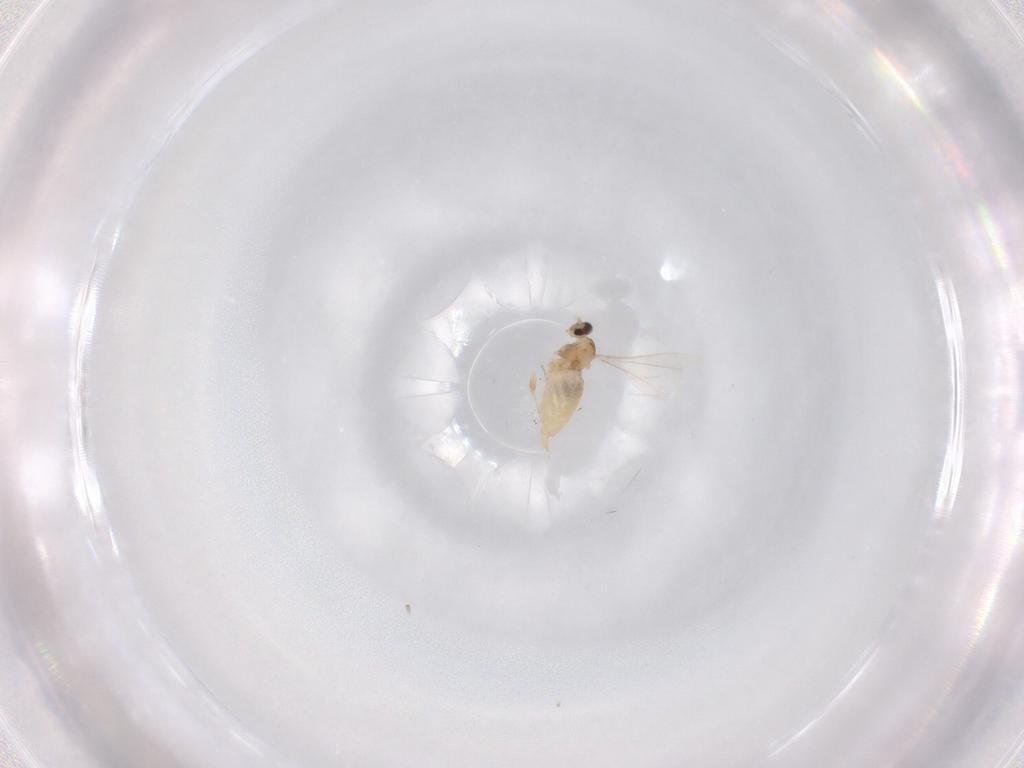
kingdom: Animalia
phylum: Arthropoda
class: Insecta
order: Diptera
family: Cecidomyiidae
